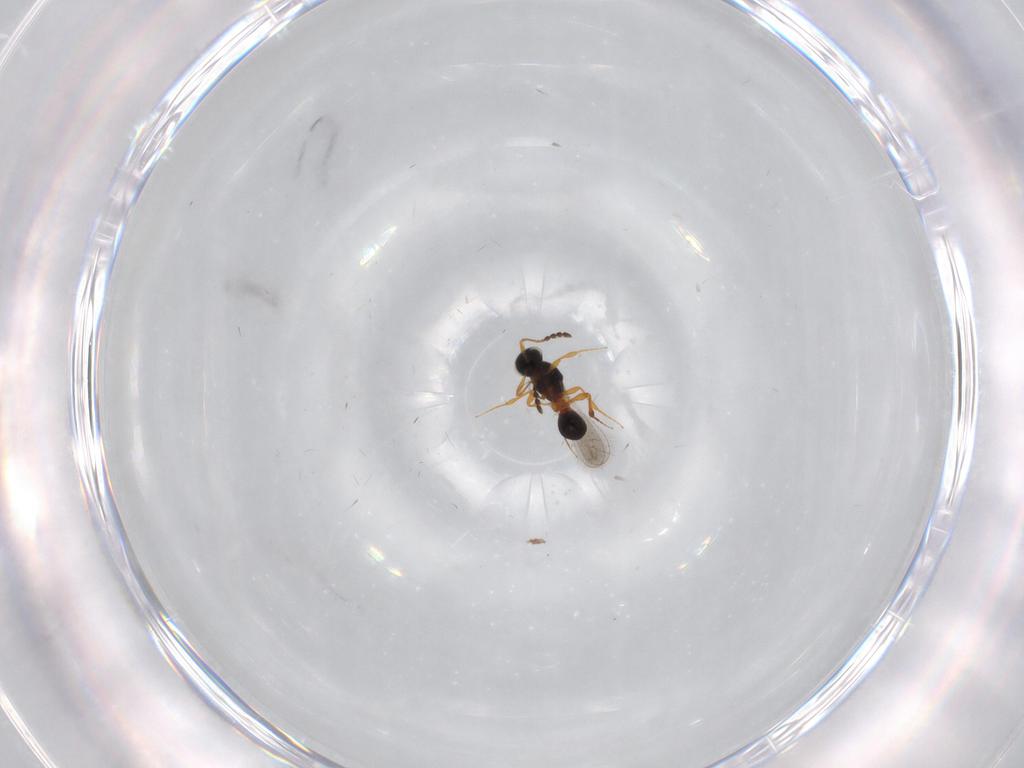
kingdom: Animalia
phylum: Arthropoda
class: Insecta
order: Hymenoptera
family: Platygastridae
